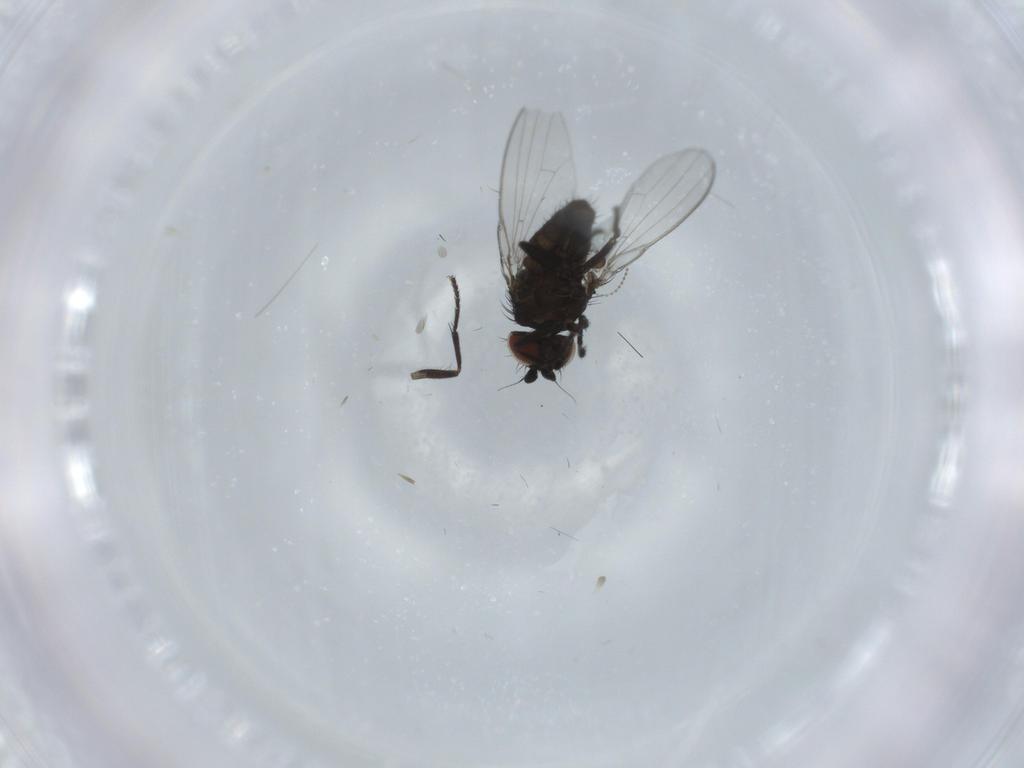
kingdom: Animalia
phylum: Arthropoda
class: Insecta
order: Diptera
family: Milichiidae
